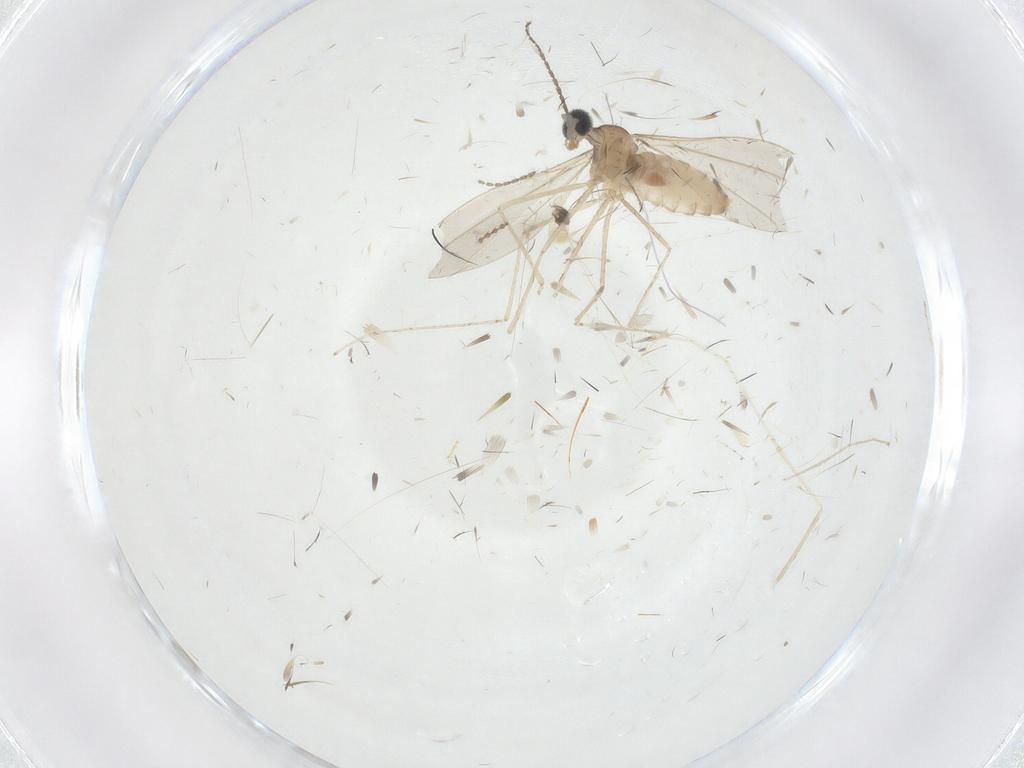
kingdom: Animalia
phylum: Arthropoda
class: Insecta
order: Diptera
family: Cecidomyiidae
